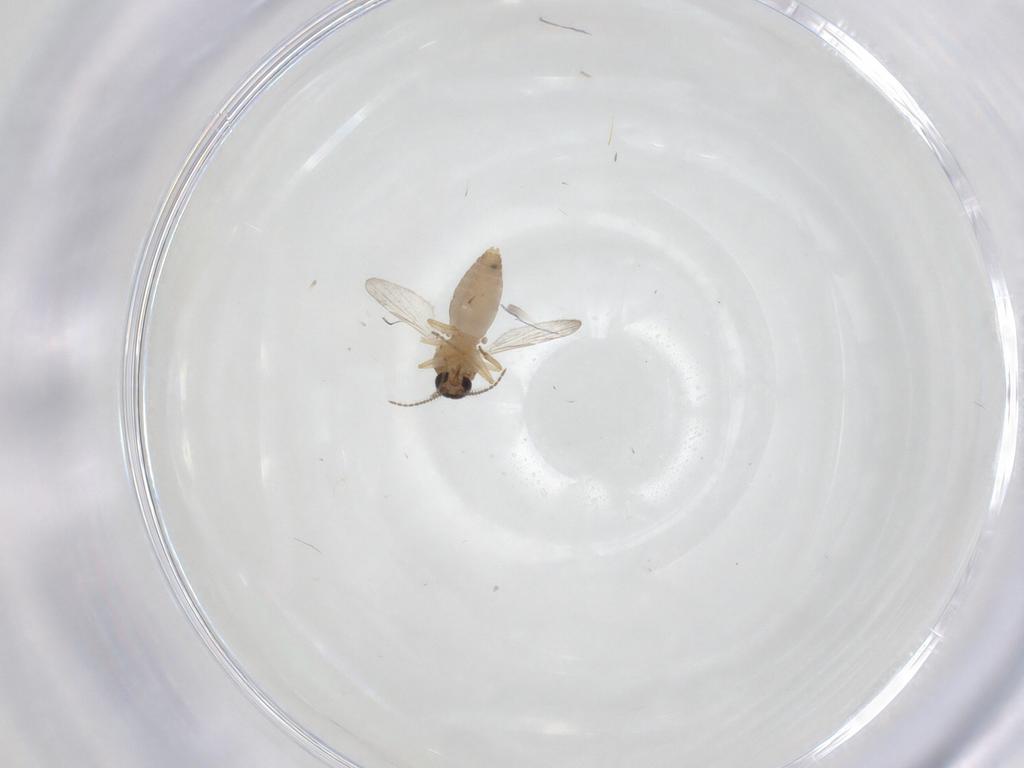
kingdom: Animalia
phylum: Arthropoda
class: Insecta
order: Diptera
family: Ceratopogonidae
